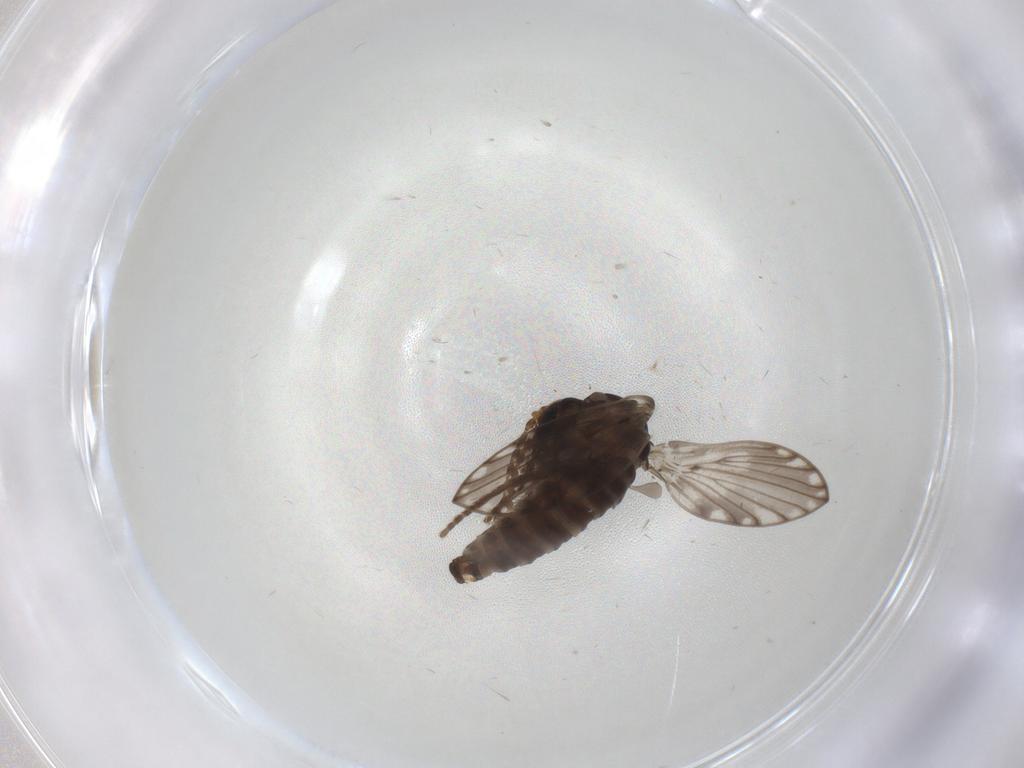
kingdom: Animalia
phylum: Arthropoda
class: Insecta
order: Diptera
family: Psychodidae
